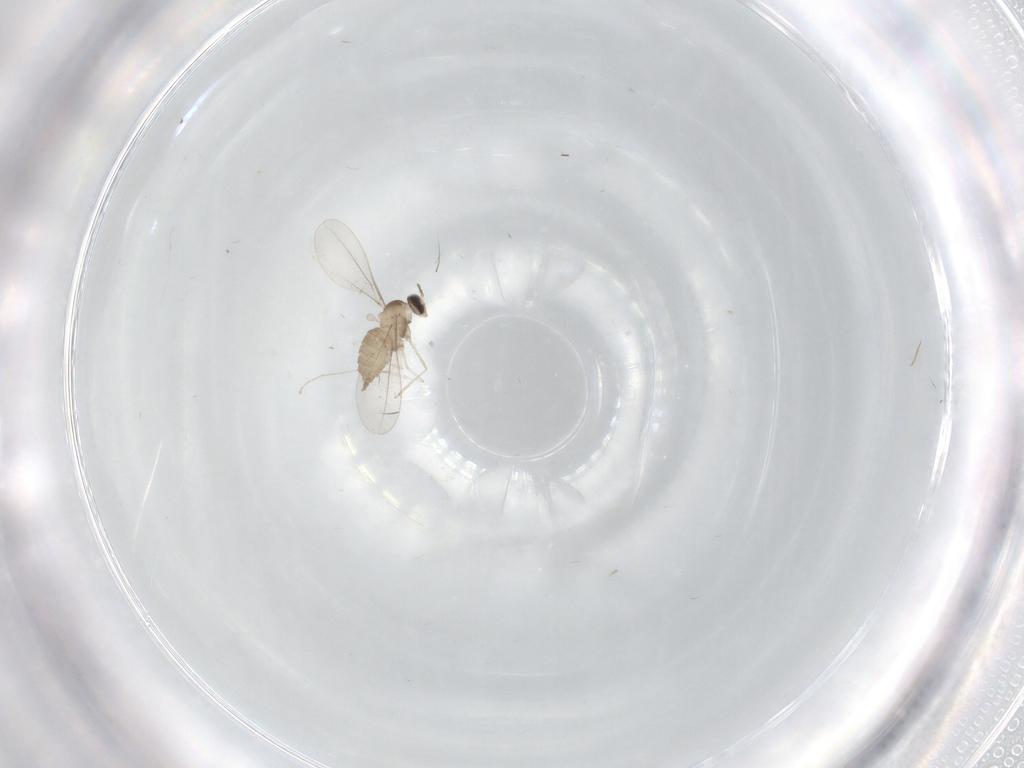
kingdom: Animalia
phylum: Arthropoda
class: Insecta
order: Diptera
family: Cecidomyiidae
